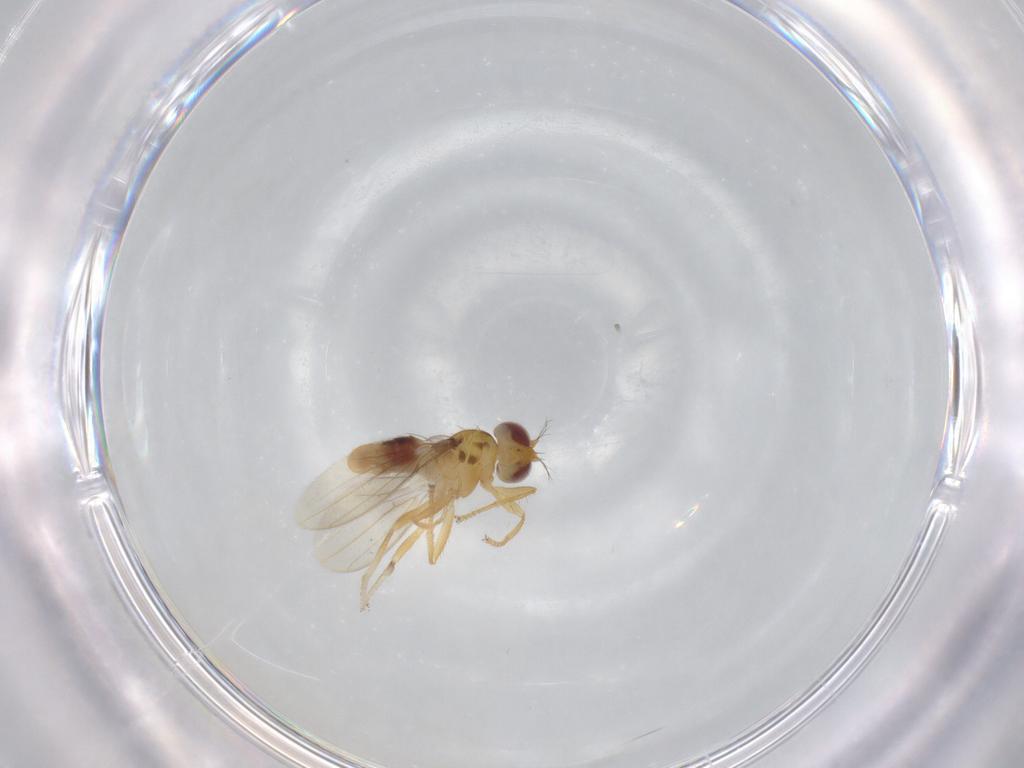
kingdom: Animalia
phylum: Arthropoda
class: Insecta
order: Diptera
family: Periscelididae
